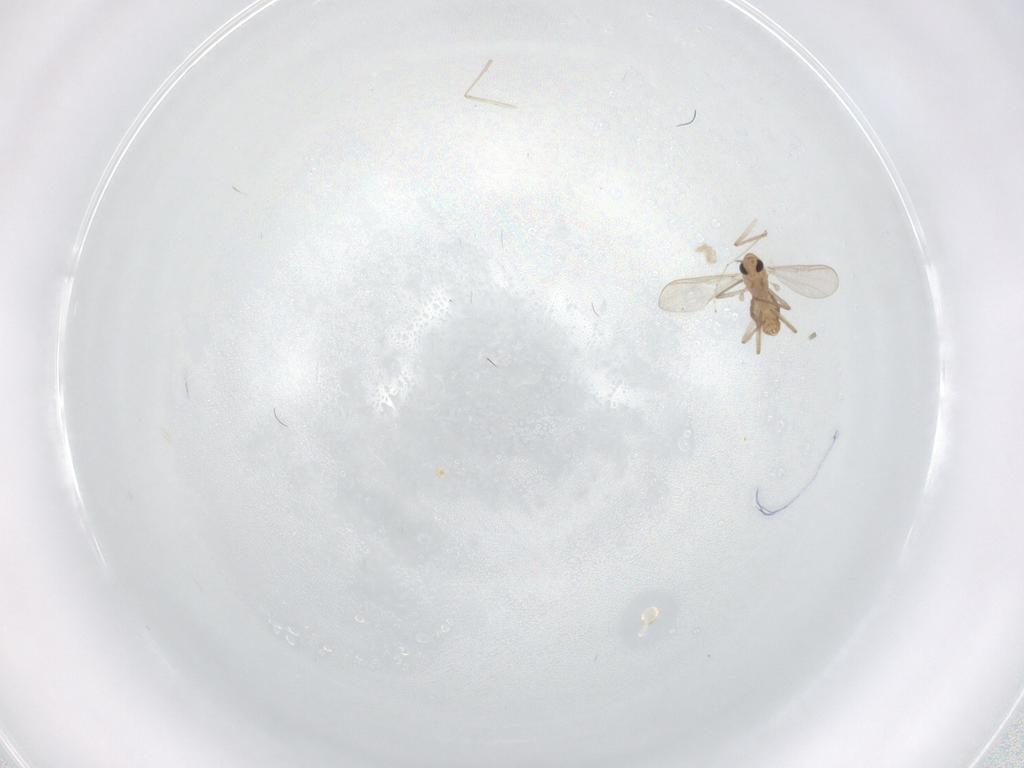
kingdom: Animalia
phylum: Arthropoda
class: Insecta
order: Diptera
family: Chironomidae
